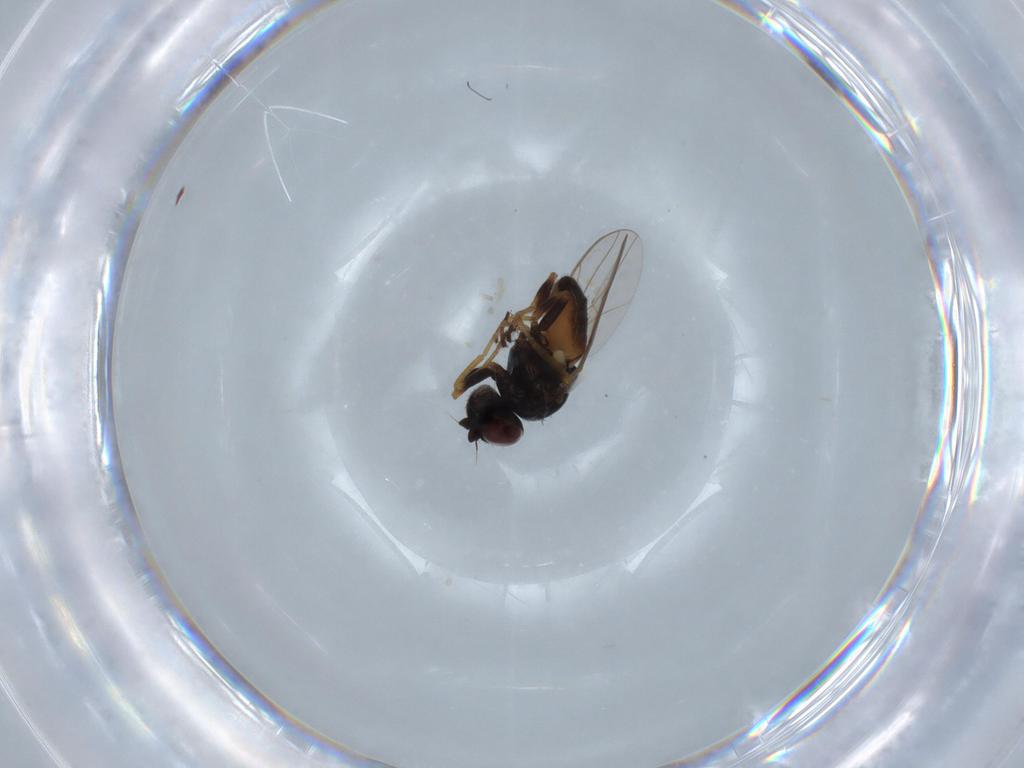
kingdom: Animalia
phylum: Arthropoda
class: Insecta
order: Diptera
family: Chloropidae
